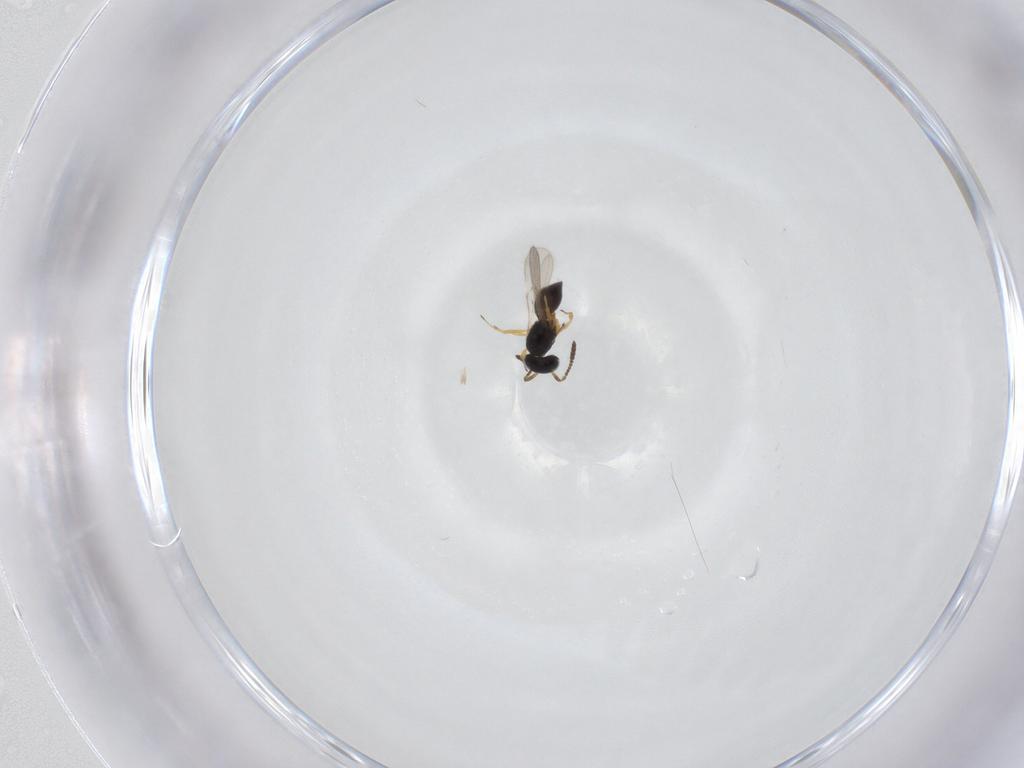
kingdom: Animalia
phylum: Arthropoda
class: Insecta
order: Hymenoptera
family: Scelionidae
